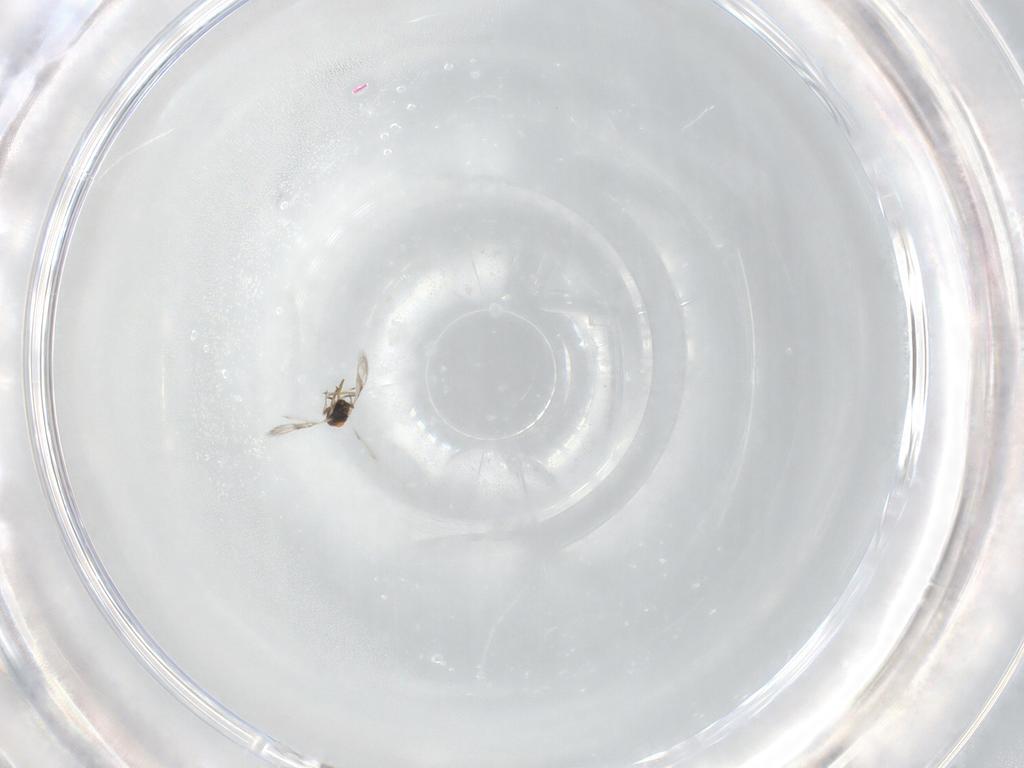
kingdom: Animalia
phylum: Arthropoda
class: Insecta
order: Hymenoptera
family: Azotidae
